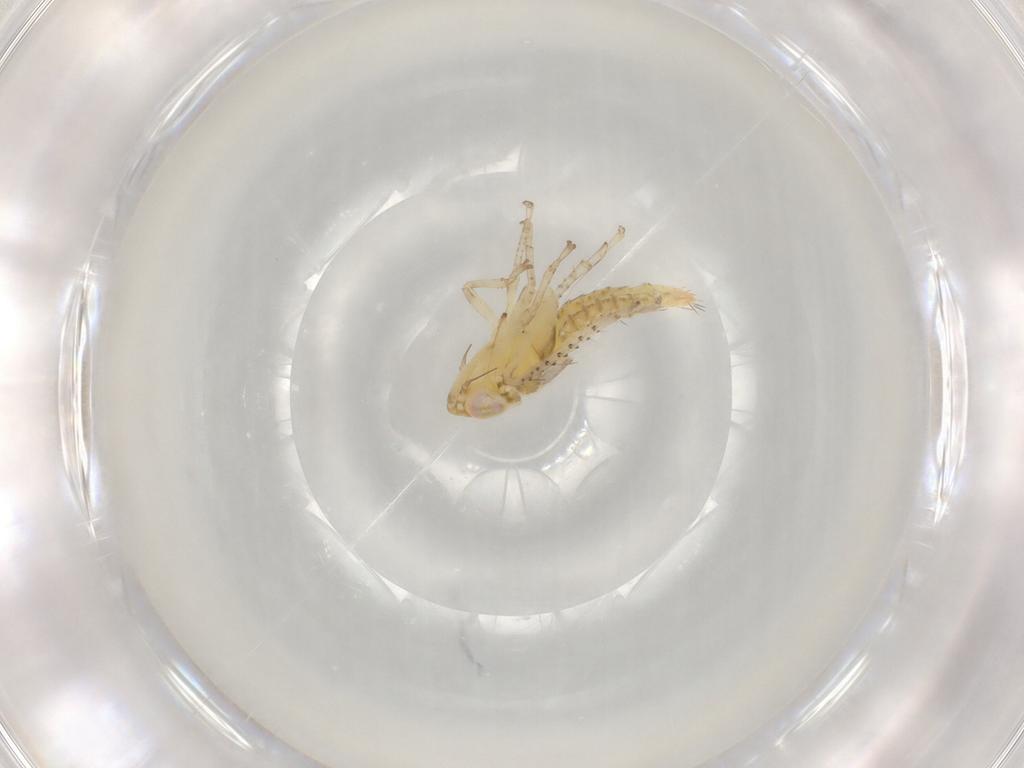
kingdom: Animalia
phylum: Arthropoda
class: Insecta
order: Hemiptera
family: Cicadellidae
